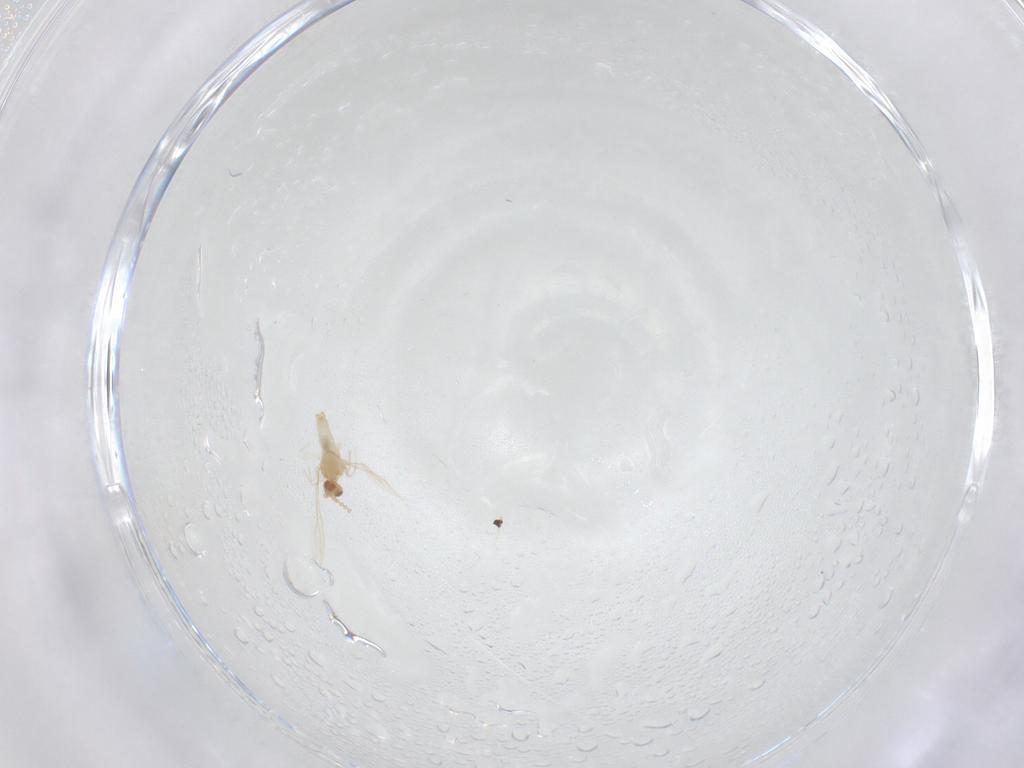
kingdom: Animalia
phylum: Arthropoda
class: Insecta
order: Diptera
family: Cecidomyiidae
